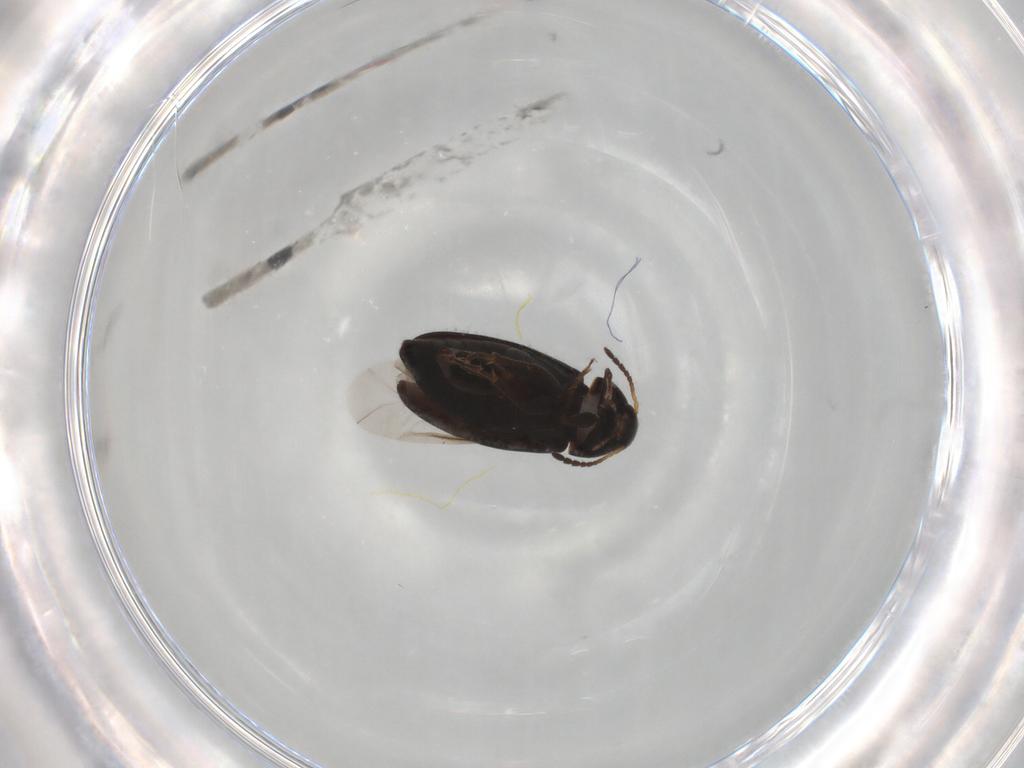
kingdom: Animalia
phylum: Arthropoda
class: Insecta
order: Coleoptera
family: Scraptiidae
